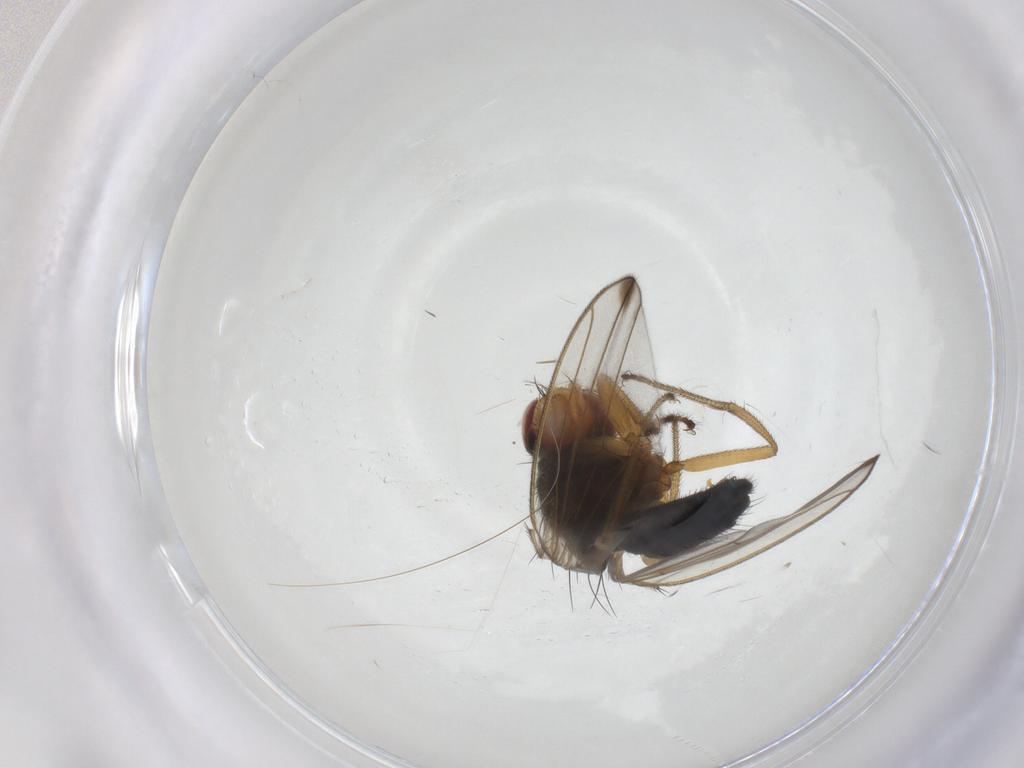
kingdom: Animalia
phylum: Arthropoda
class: Insecta
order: Diptera
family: Drosophilidae
